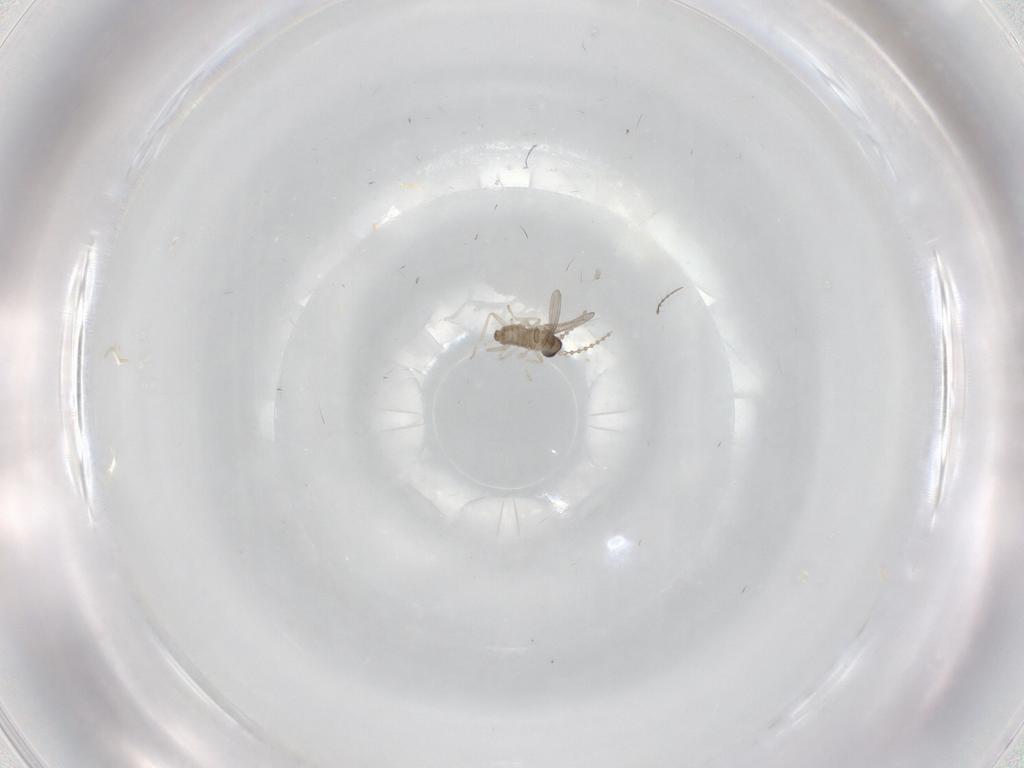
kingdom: Animalia
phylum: Arthropoda
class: Insecta
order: Diptera
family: Cecidomyiidae
